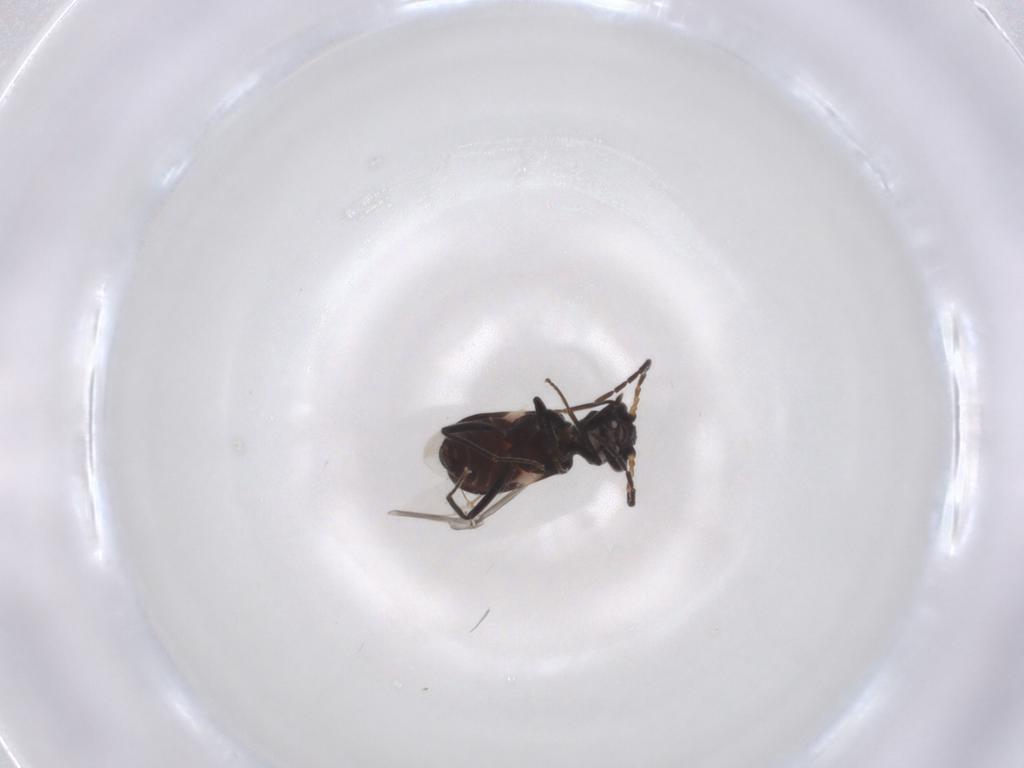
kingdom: Animalia
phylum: Arthropoda
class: Insecta
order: Coleoptera
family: Melyridae
